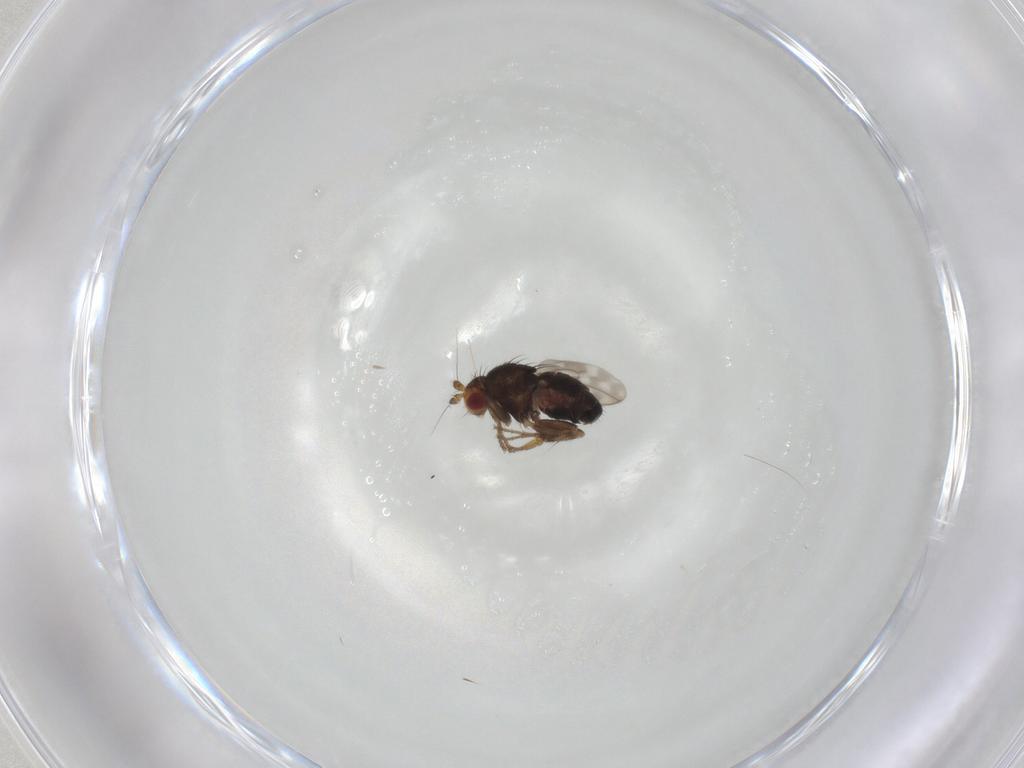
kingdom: Animalia
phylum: Arthropoda
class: Insecta
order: Diptera
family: Sphaeroceridae
